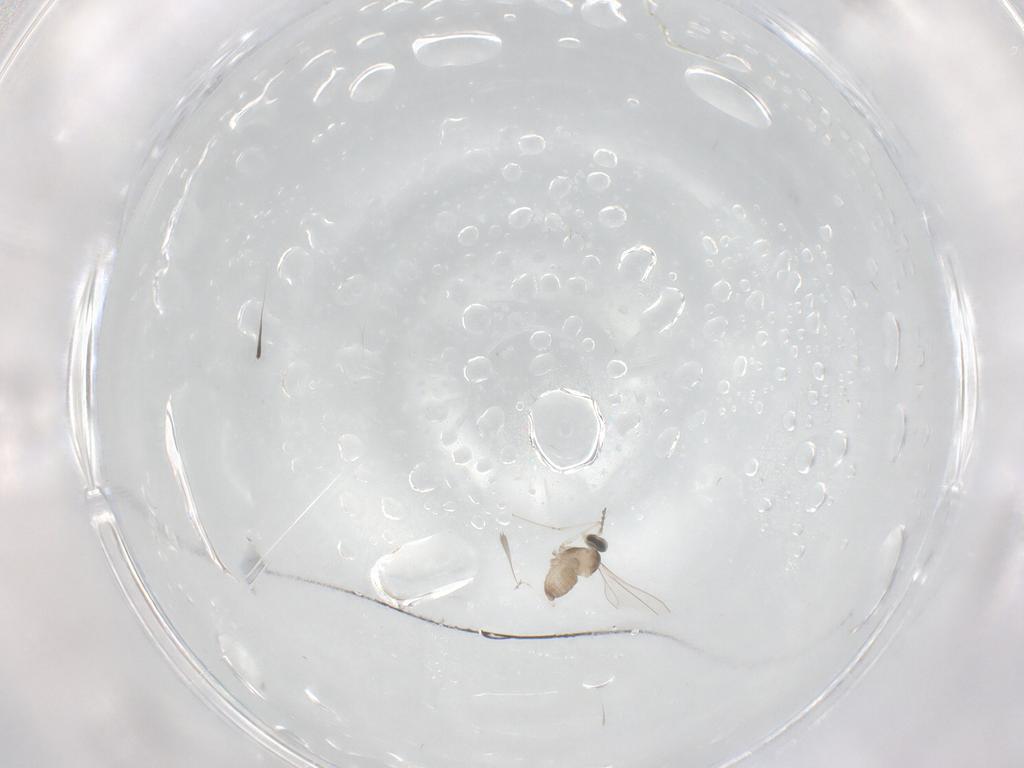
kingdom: Animalia
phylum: Arthropoda
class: Insecta
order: Diptera
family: Cecidomyiidae
